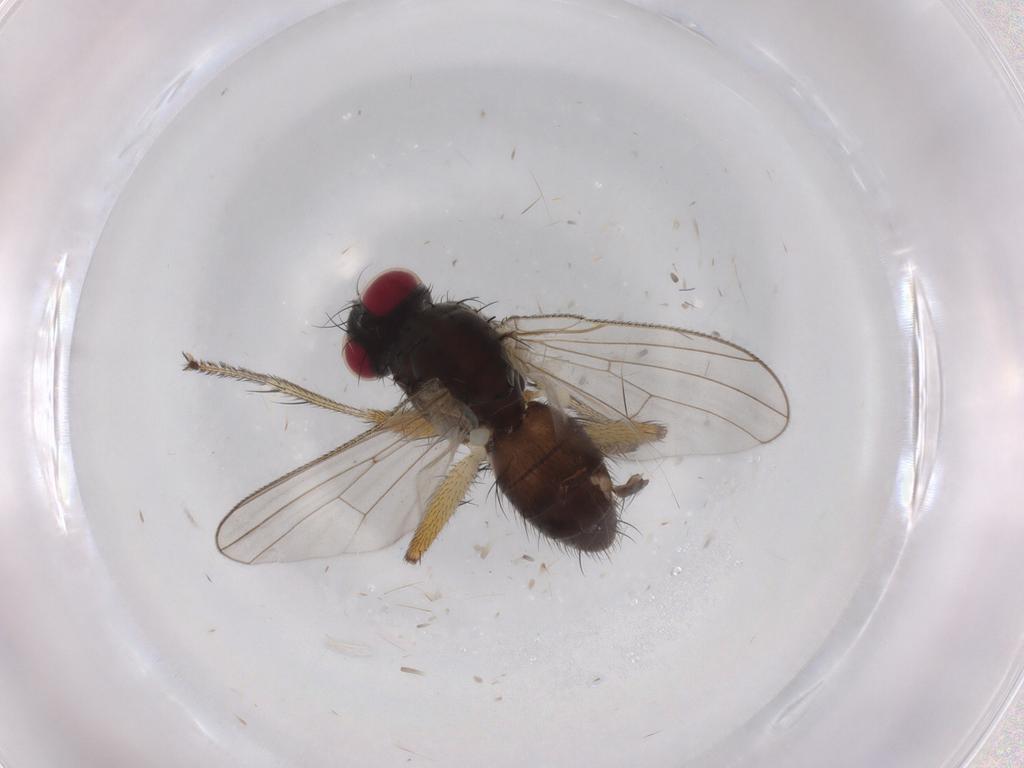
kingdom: Animalia
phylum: Arthropoda
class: Insecta
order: Diptera
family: Muscidae
